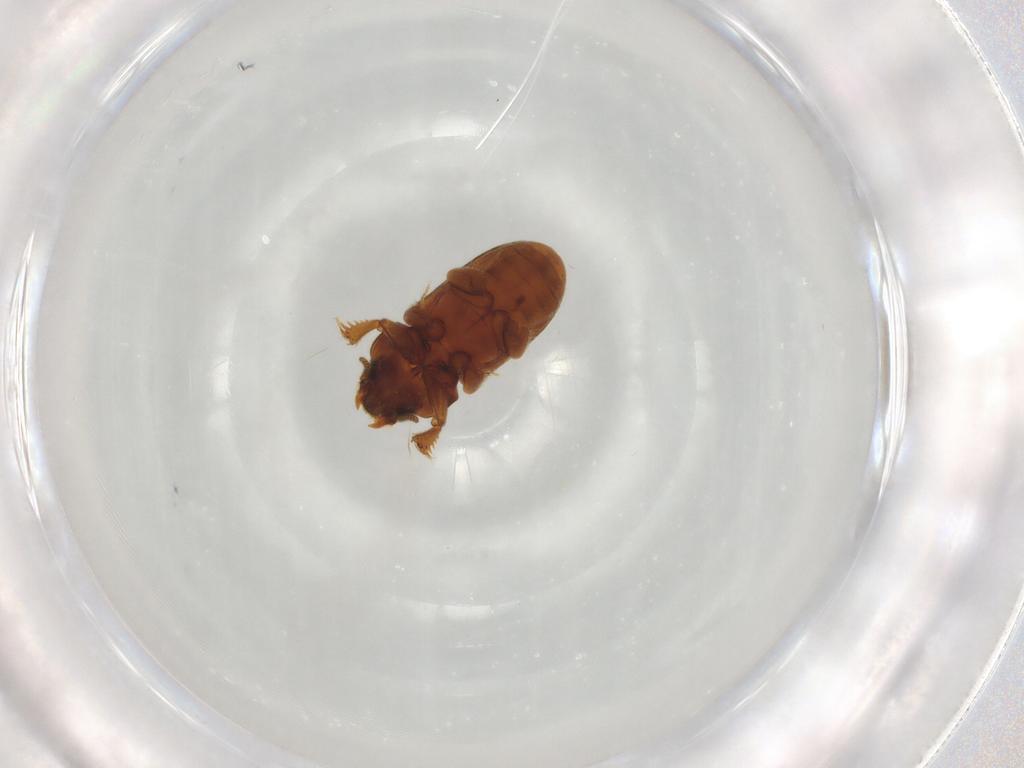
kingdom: Animalia
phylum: Arthropoda
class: Insecta
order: Coleoptera
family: Heteroceridae
